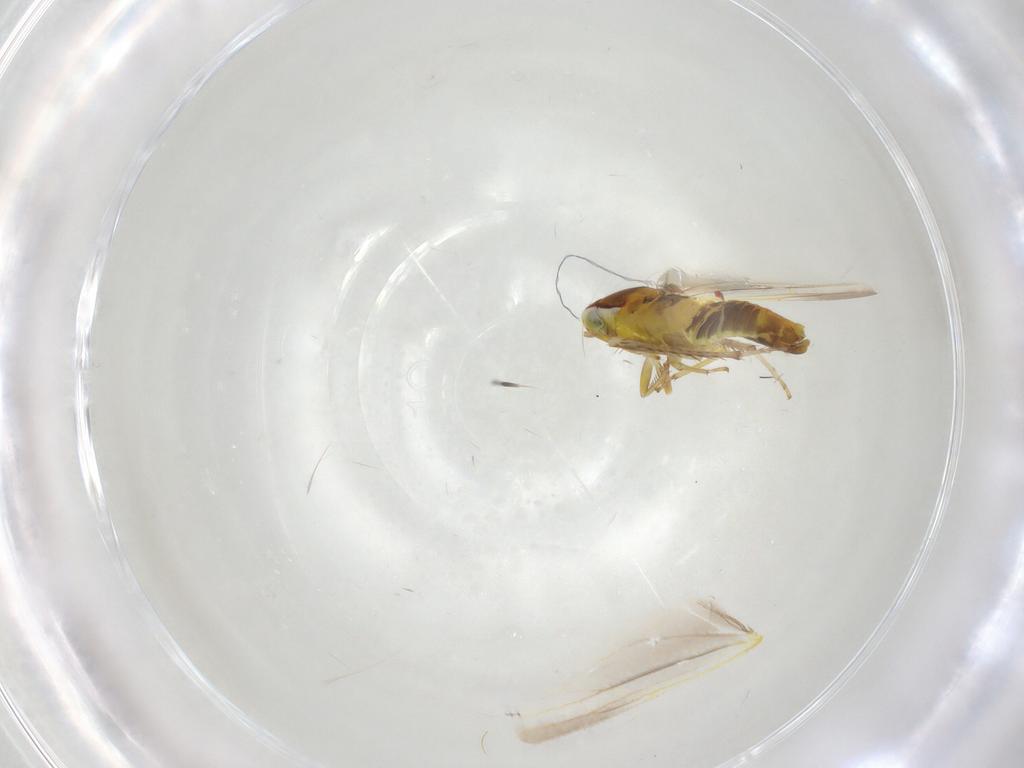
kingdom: Animalia
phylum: Arthropoda
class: Insecta
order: Hemiptera
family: Cicadellidae
